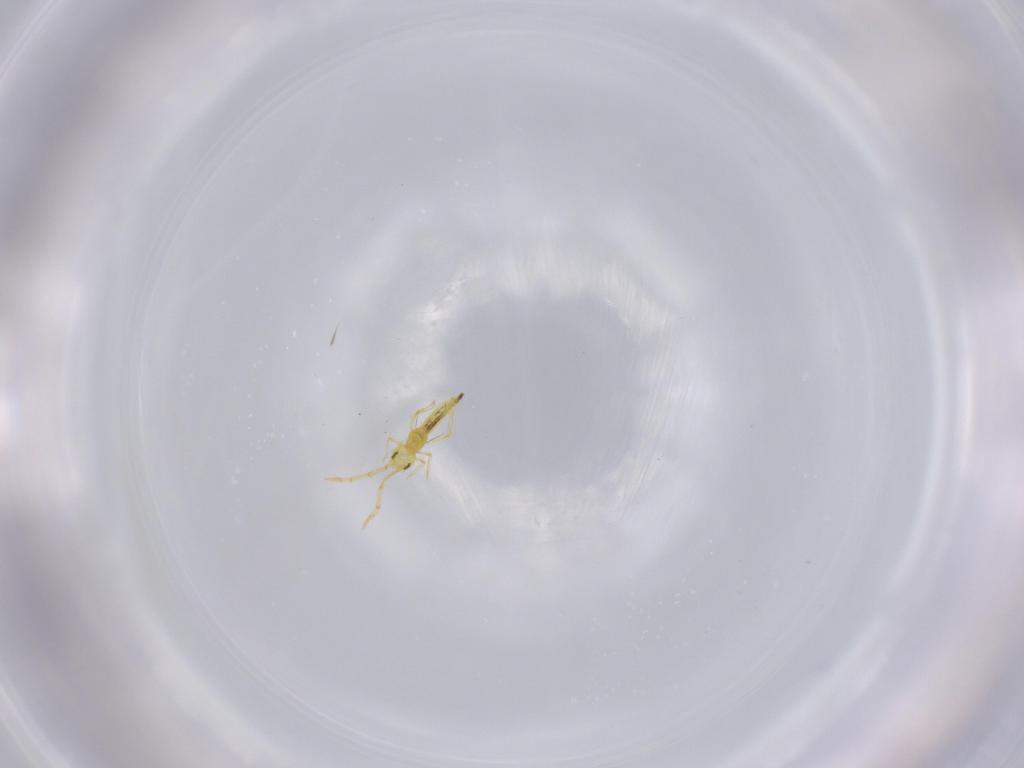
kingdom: Animalia
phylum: Arthropoda
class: Collembola
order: Entomobryomorpha
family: Paronellidae
